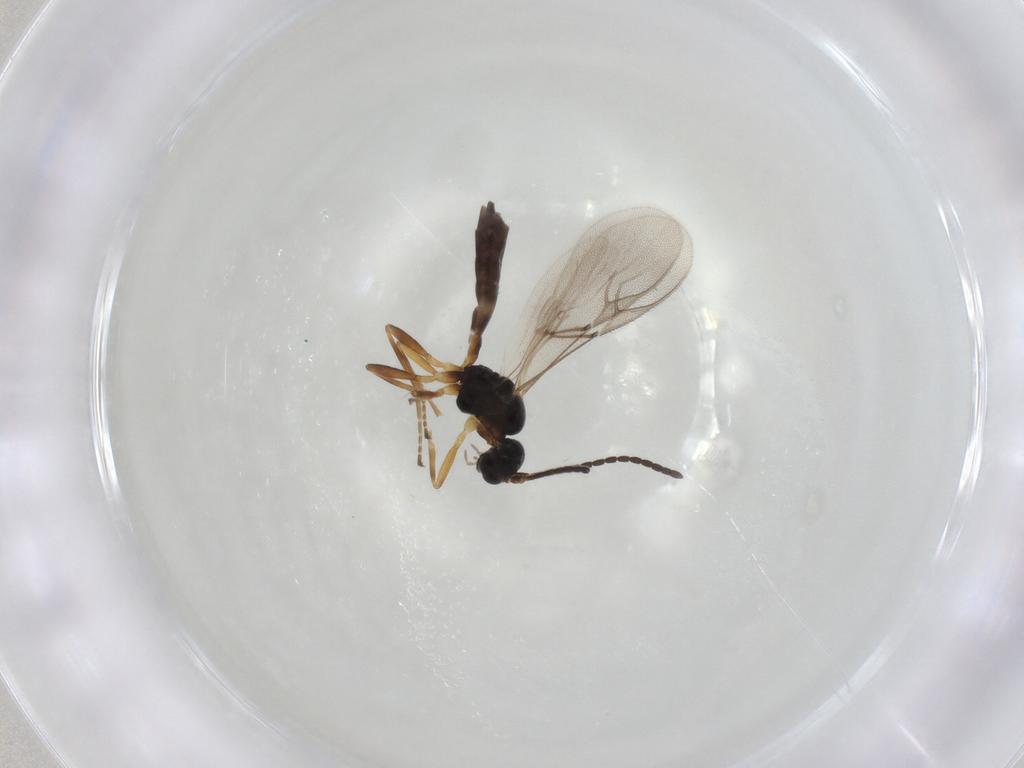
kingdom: Animalia
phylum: Arthropoda
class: Insecta
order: Hymenoptera
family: Braconidae
